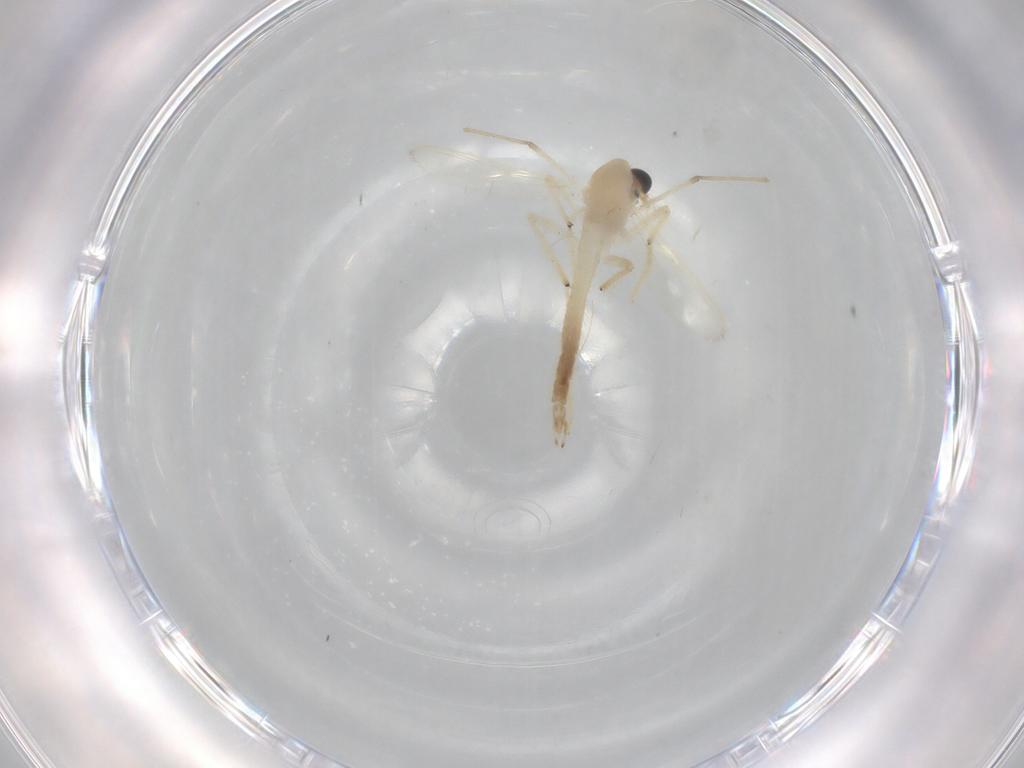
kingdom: Animalia
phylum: Arthropoda
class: Insecta
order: Diptera
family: Chironomidae
